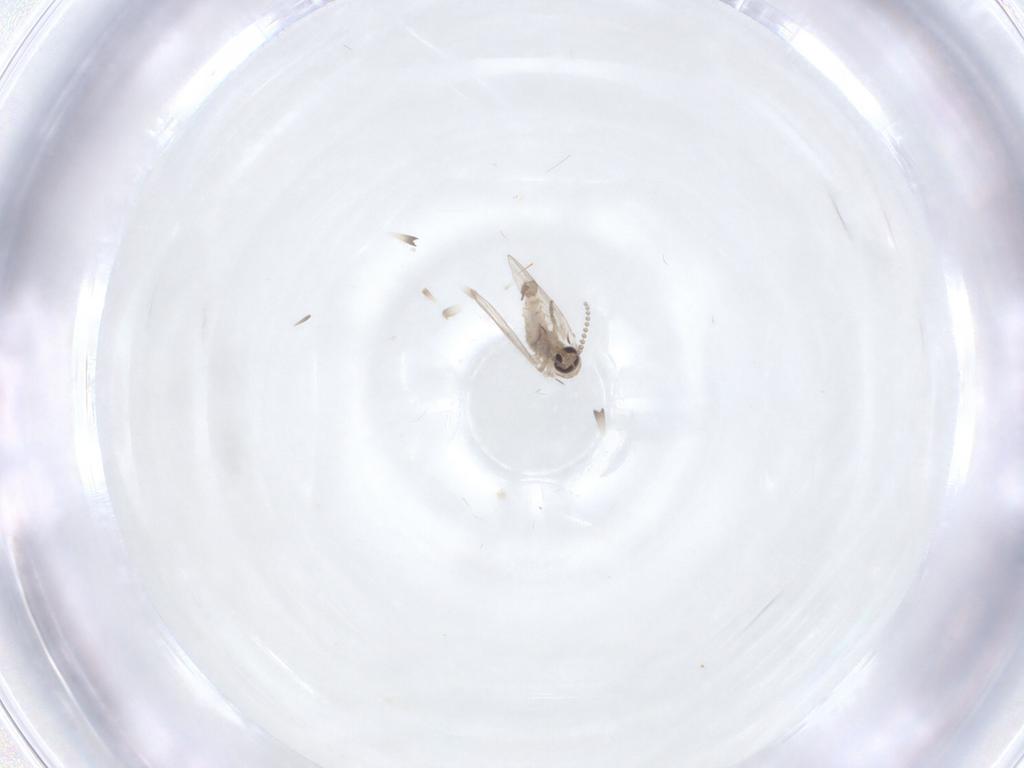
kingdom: Animalia
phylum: Arthropoda
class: Insecta
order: Diptera
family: Psychodidae
